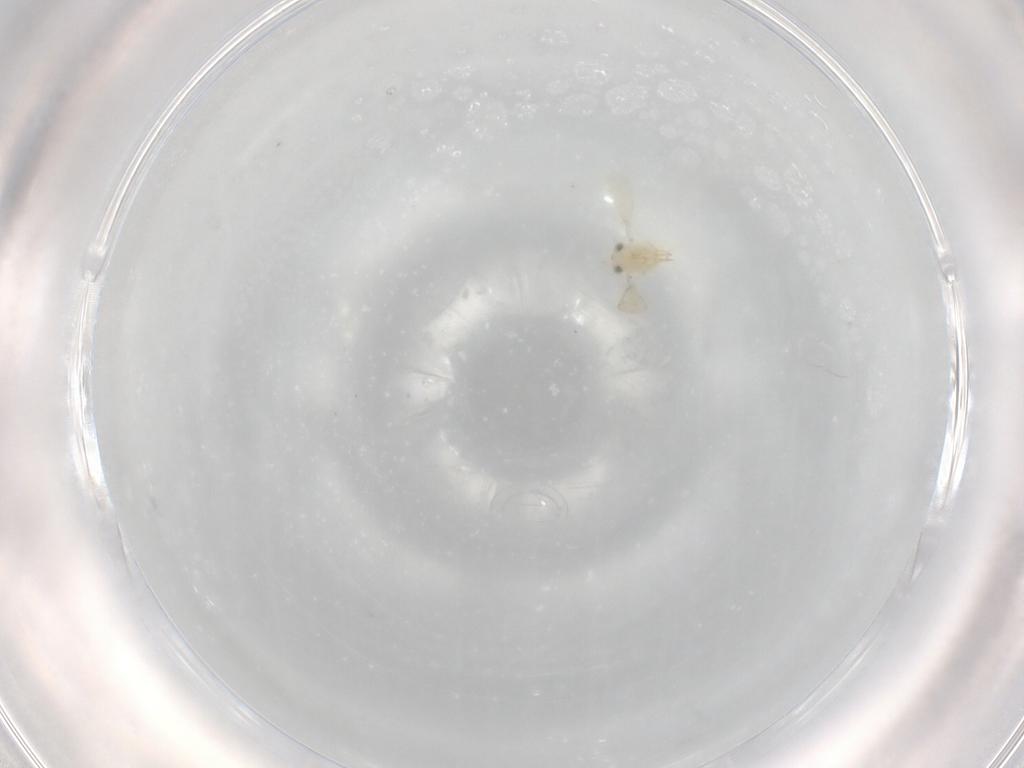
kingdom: Animalia
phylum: Arthropoda
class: Insecta
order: Hymenoptera
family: Aphelinidae
